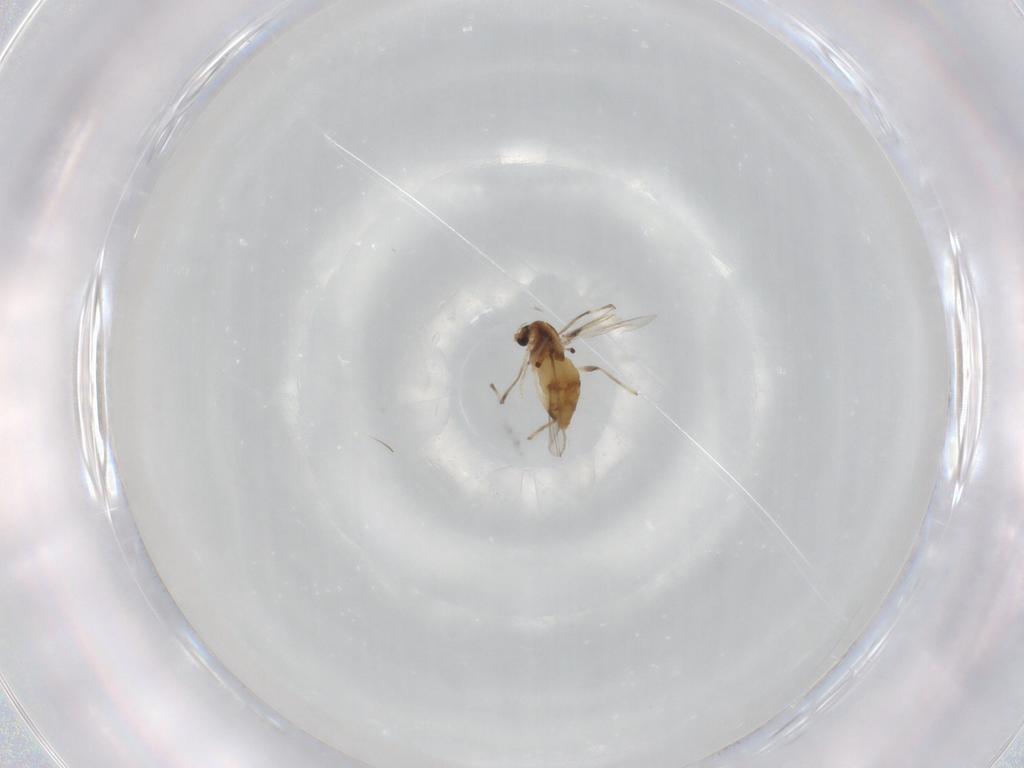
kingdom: Animalia
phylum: Arthropoda
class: Insecta
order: Diptera
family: Chironomidae
